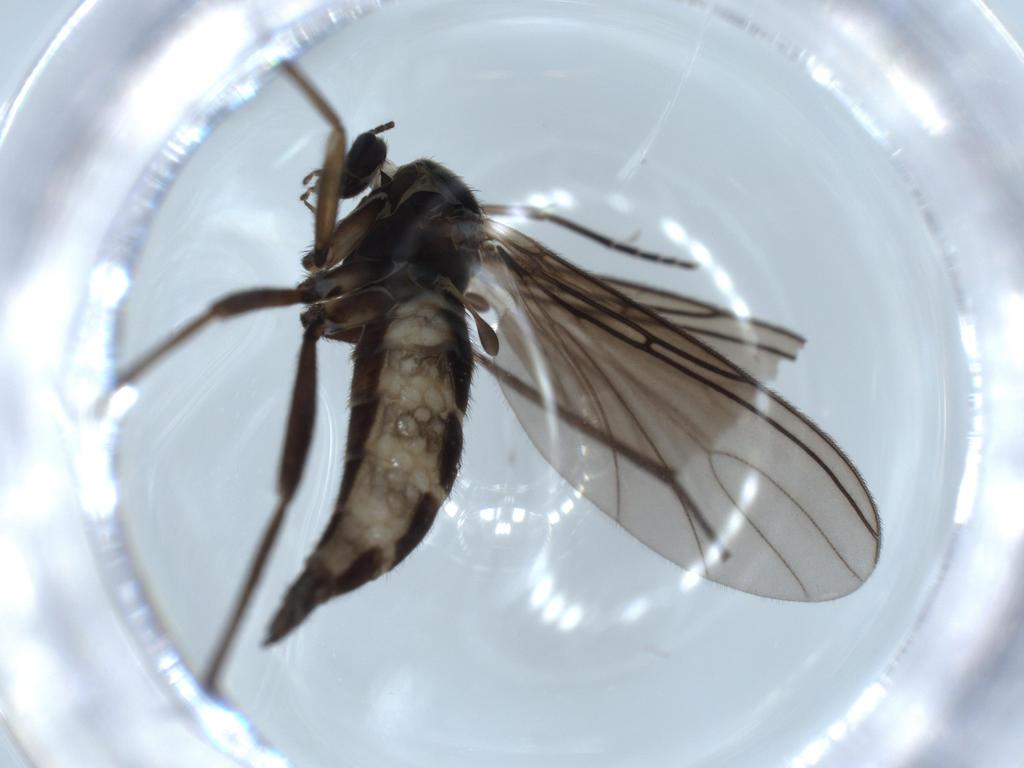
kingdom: Animalia
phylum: Arthropoda
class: Insecta
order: Diptera
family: Sciaridae
